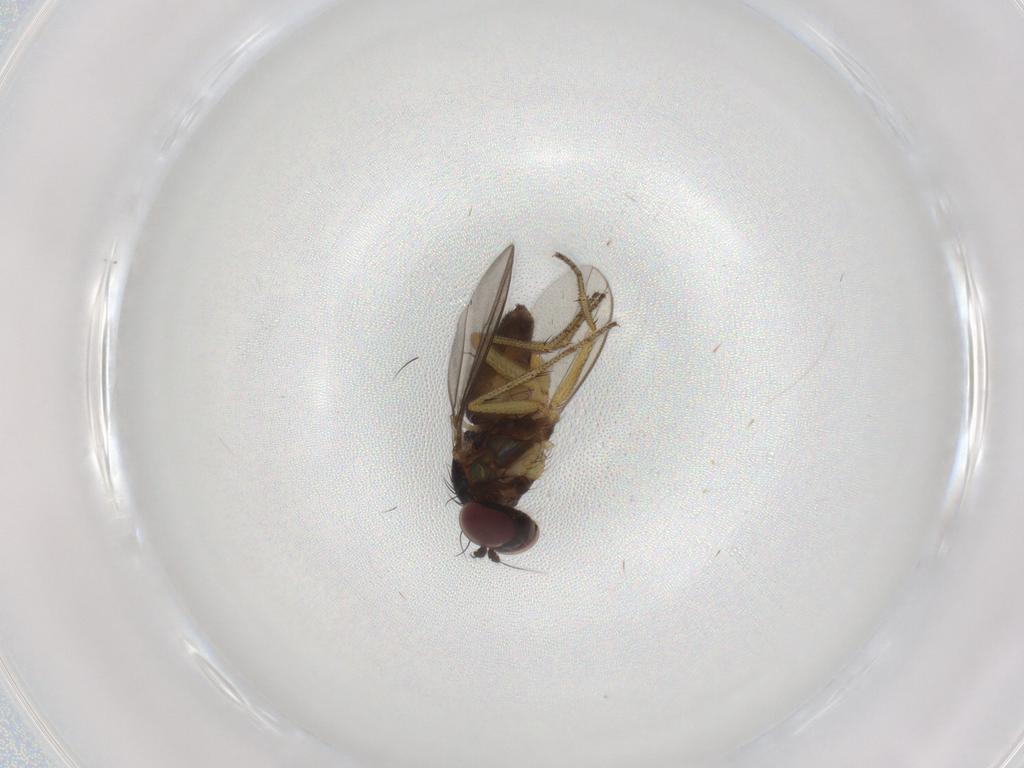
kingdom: Animalia
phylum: Arthropoda
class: Insecta
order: Diptera
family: Dolichopodidae
